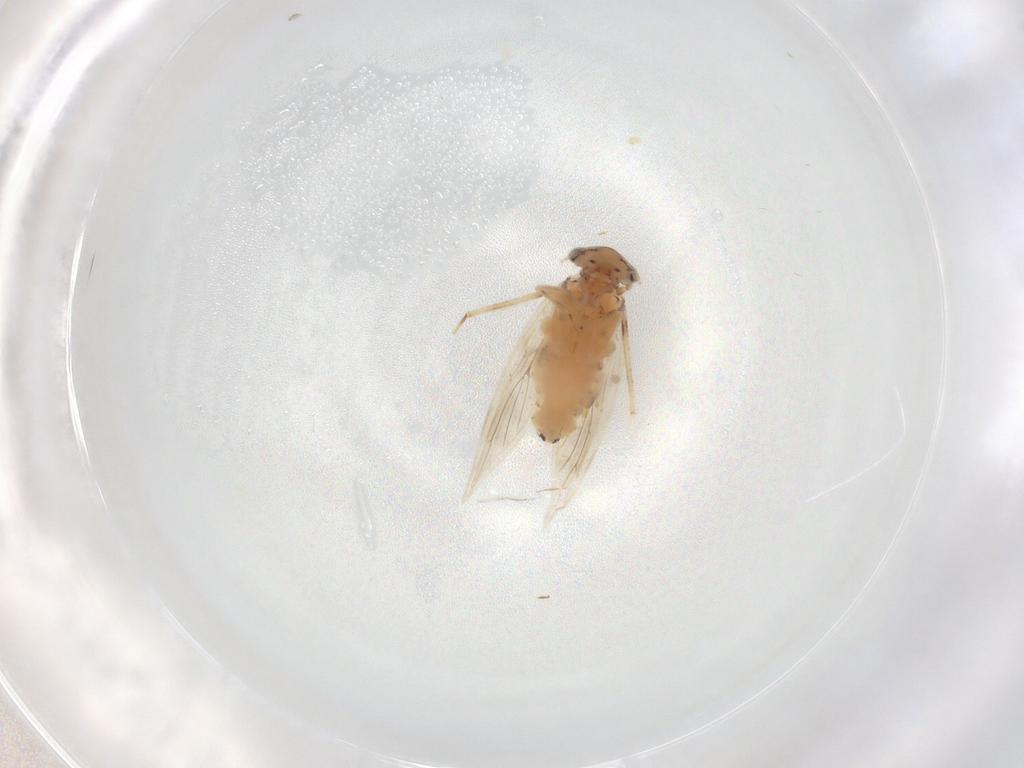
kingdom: Animalia
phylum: Arthropoda
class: Insecta
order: Psocodea
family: Lepidopsocidae
